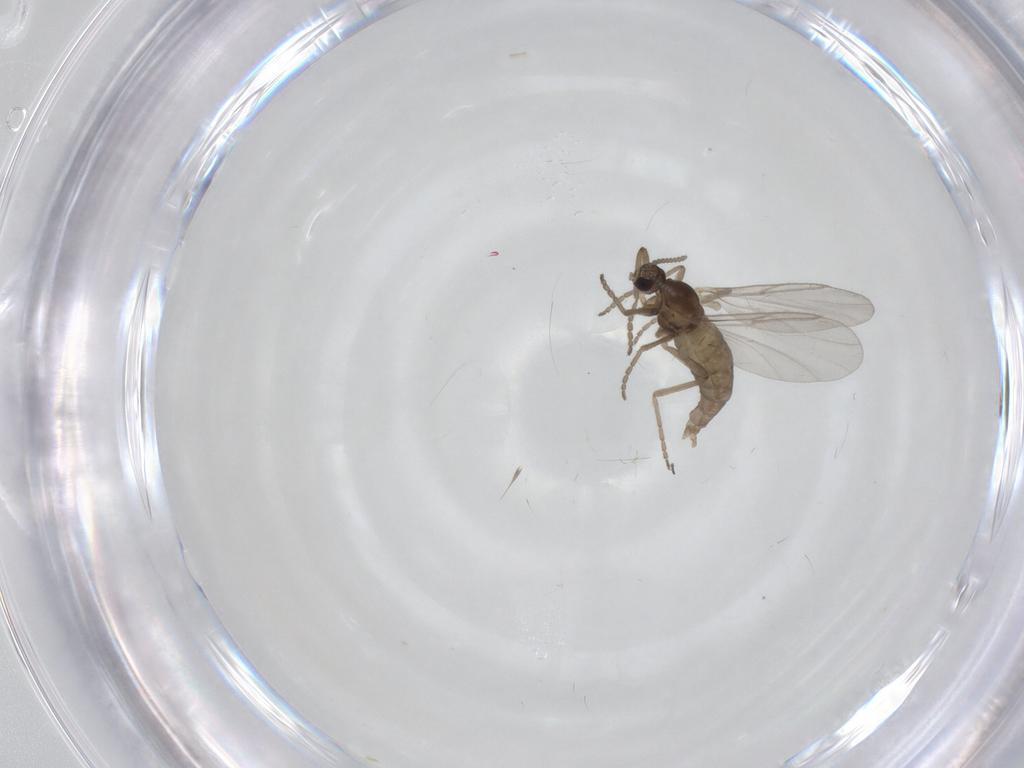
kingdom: Animalia
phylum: Arthropoda
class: Insecta
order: Diptera
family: Cecidomyiidae
